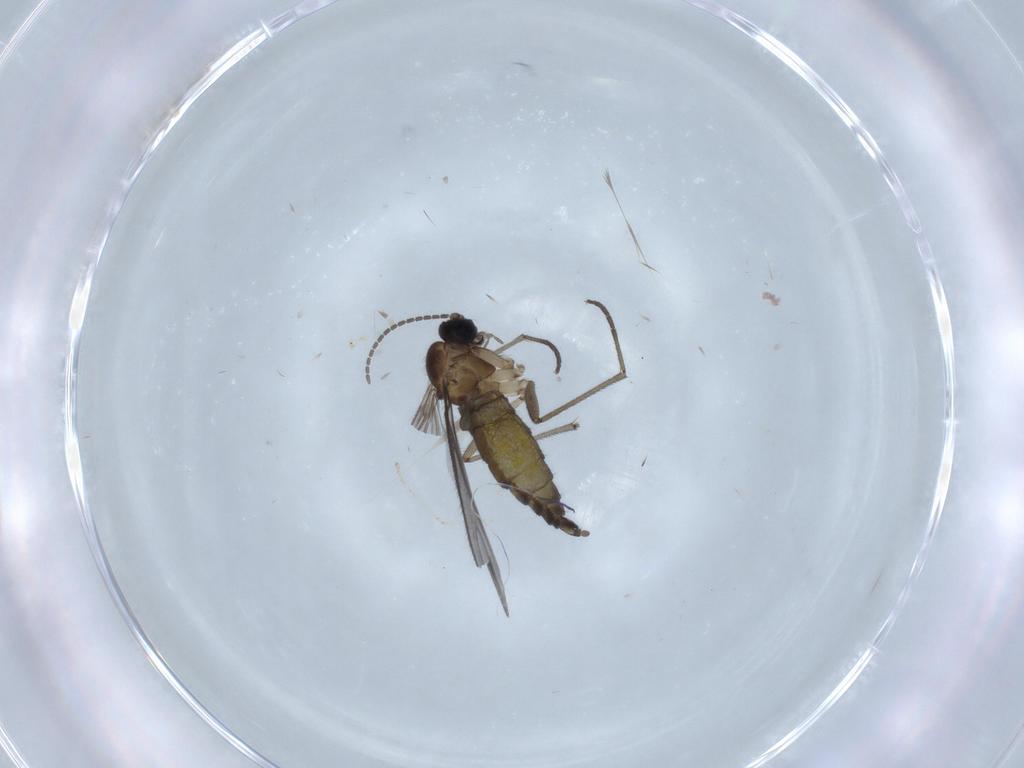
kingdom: Animalia
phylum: Arthropoda
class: Insecta
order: Diptera
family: Sciaridae
